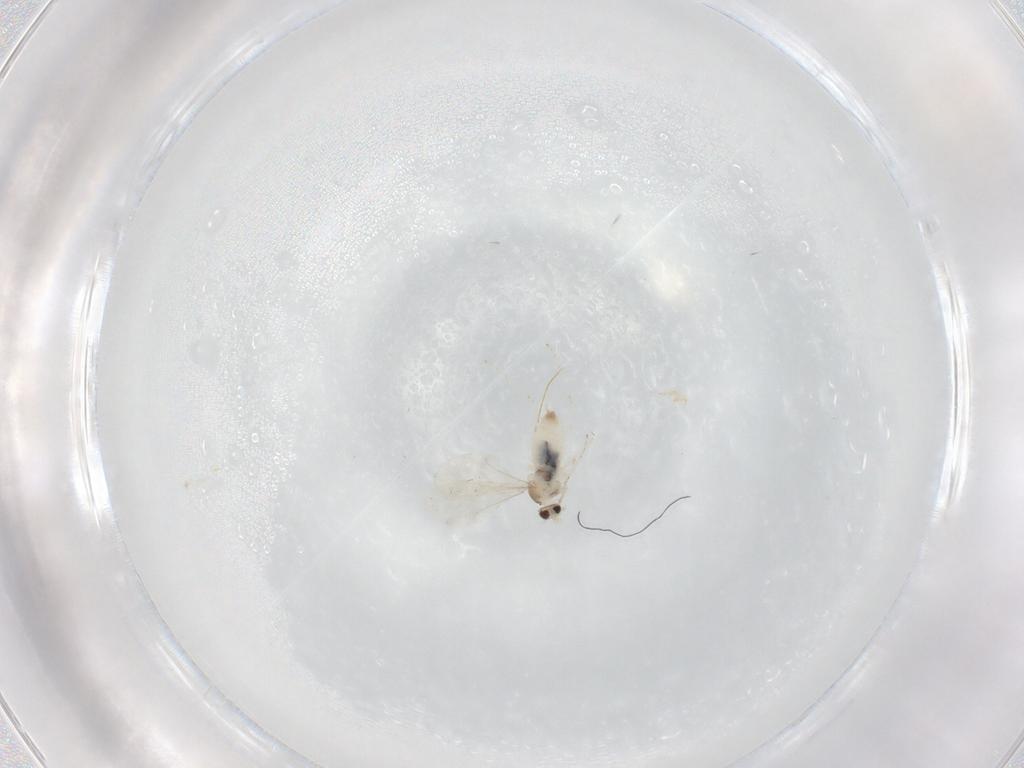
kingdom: Animalia
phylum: Arthropoda
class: Insecta
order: Diptera
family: Cecidomyiidae
